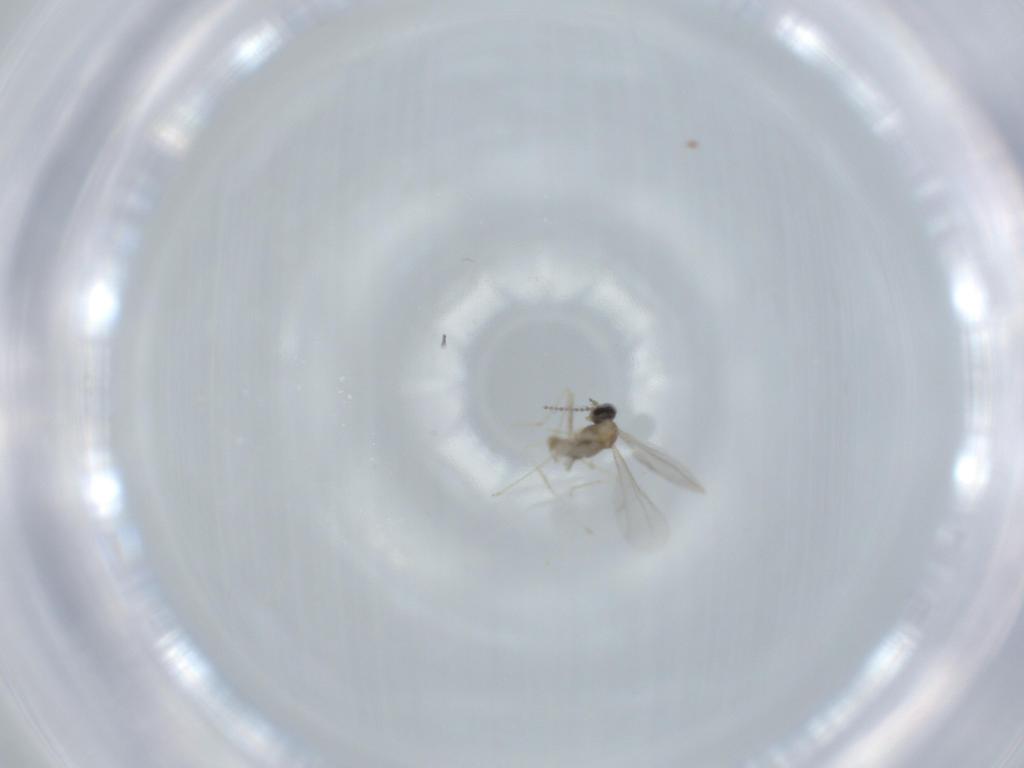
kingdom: Animalia
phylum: Arthropoda
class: Insecta
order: Diptera
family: Cecidomyiidae
